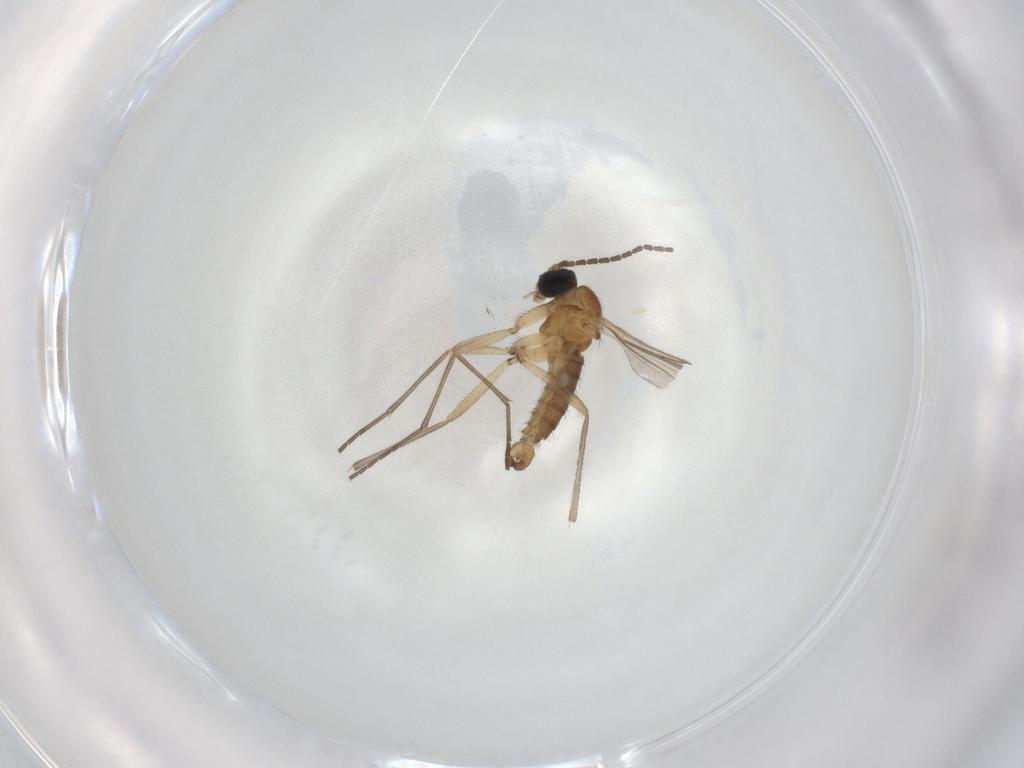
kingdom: Animalia
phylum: Arthropoda
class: Insecta
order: Diptera
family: Sciaridae
